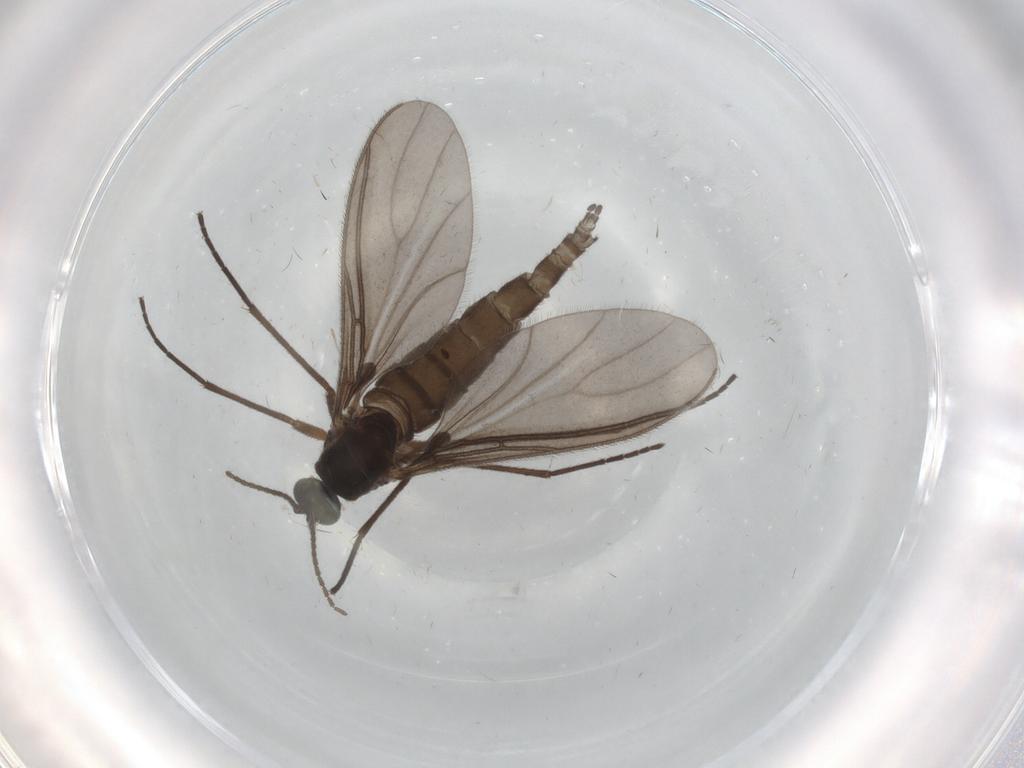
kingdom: Animalia
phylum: Arthropoda
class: Insecta
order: Diptera
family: Sciaridae
